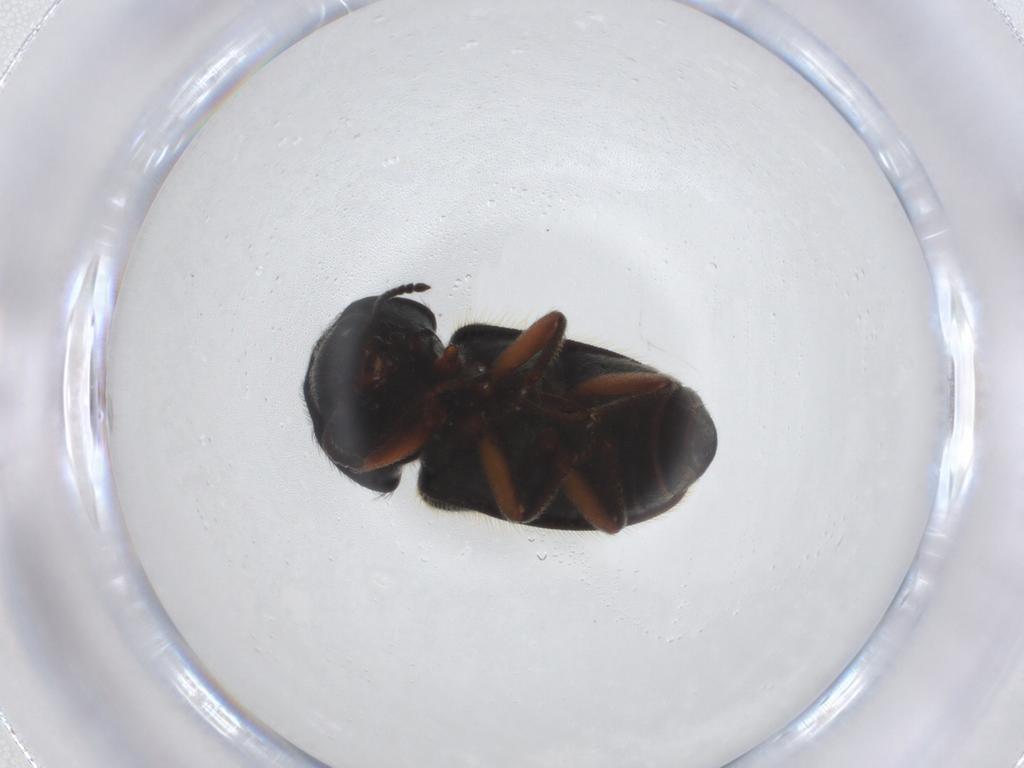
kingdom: Animalia
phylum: Arthropoda
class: Insecta
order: Coleoptera
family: Melyridae
